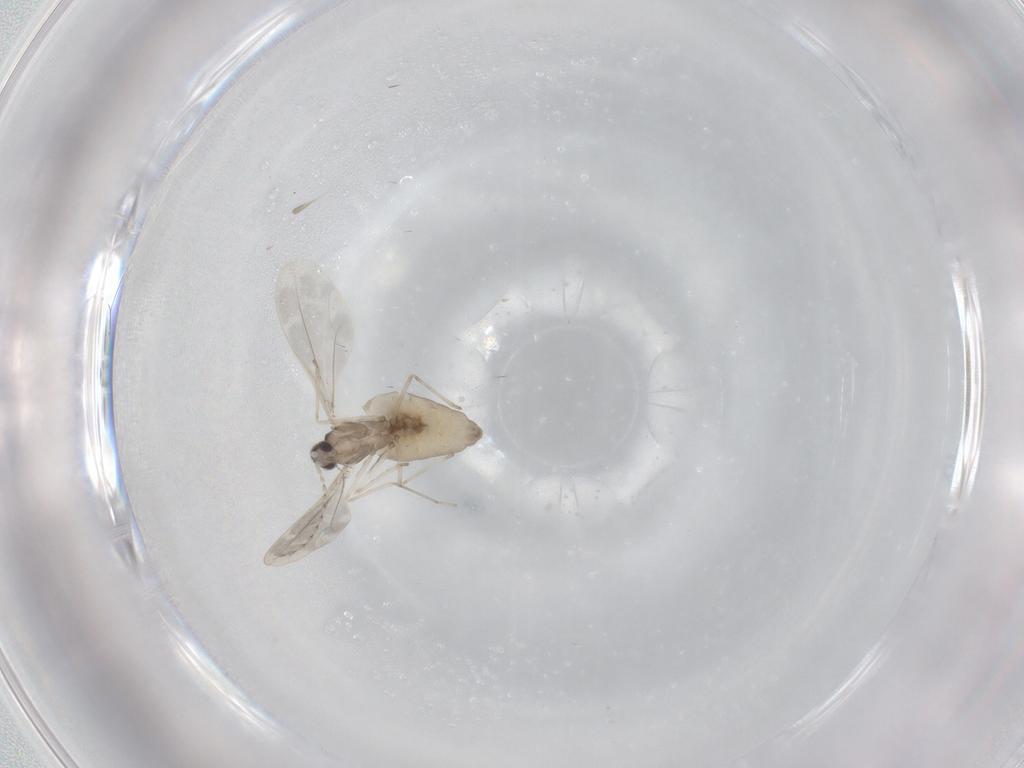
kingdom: Animalia
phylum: Arthropoda
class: Insecta
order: Diptera
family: Cecidomyiidae
